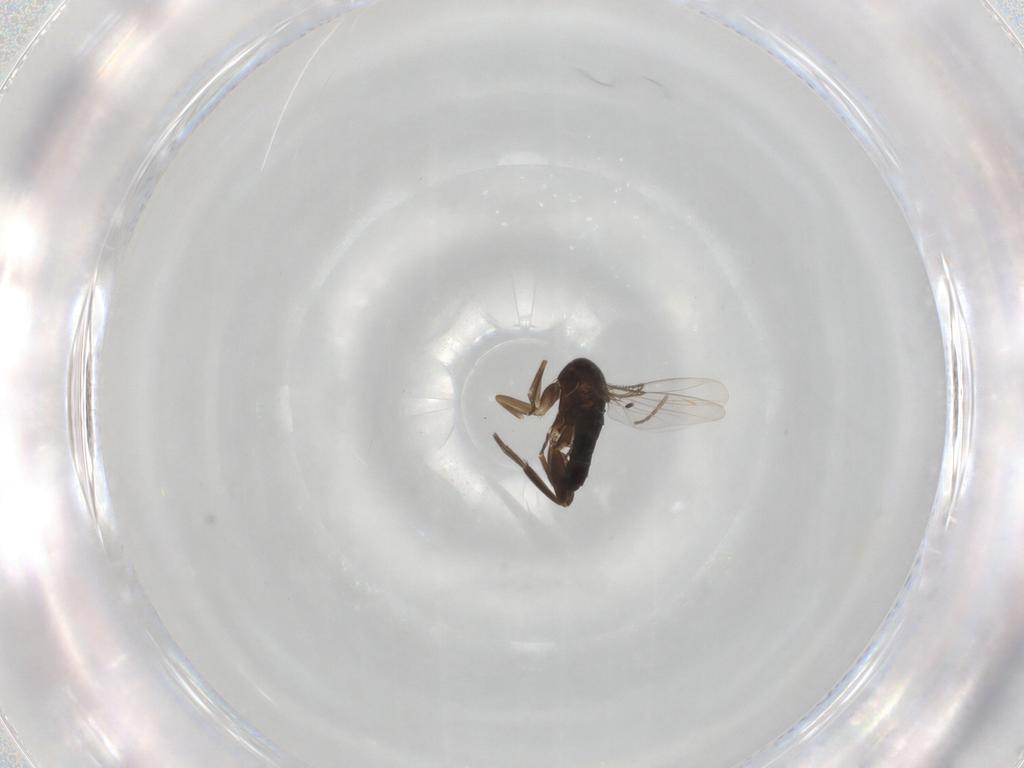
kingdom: Animalia
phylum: Arthropoda
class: Insecta
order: Diptera
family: Phoridae
